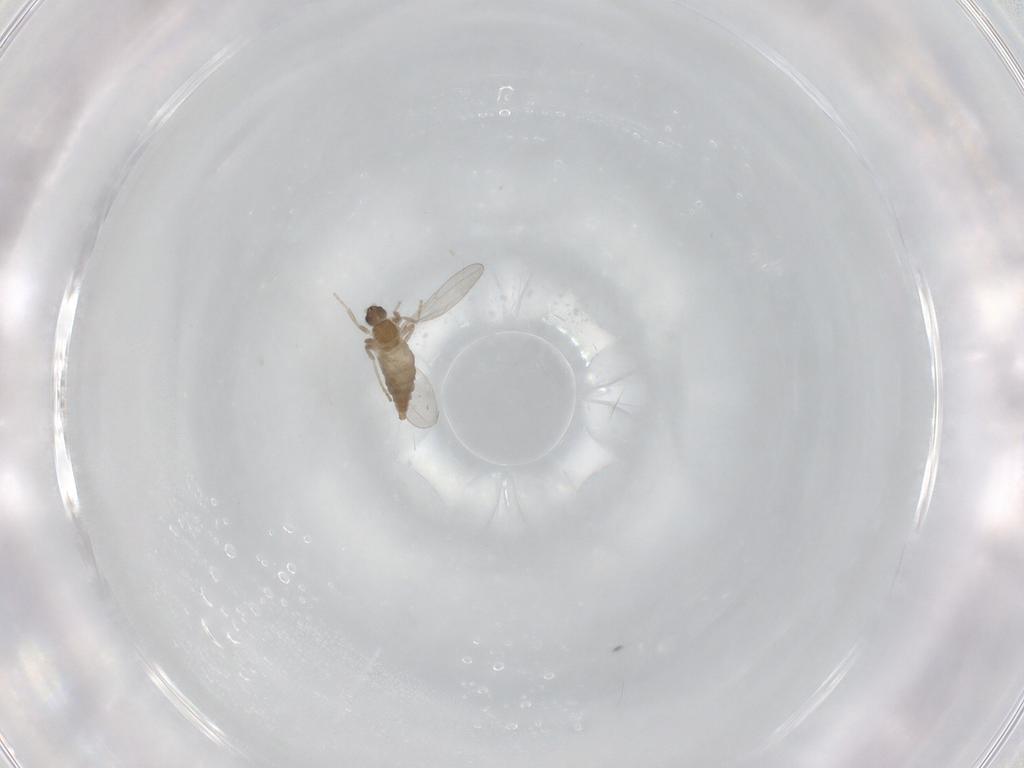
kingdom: Animalia
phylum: Arthropoda
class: Insecta
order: Diptera
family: Cecidomyiidae
